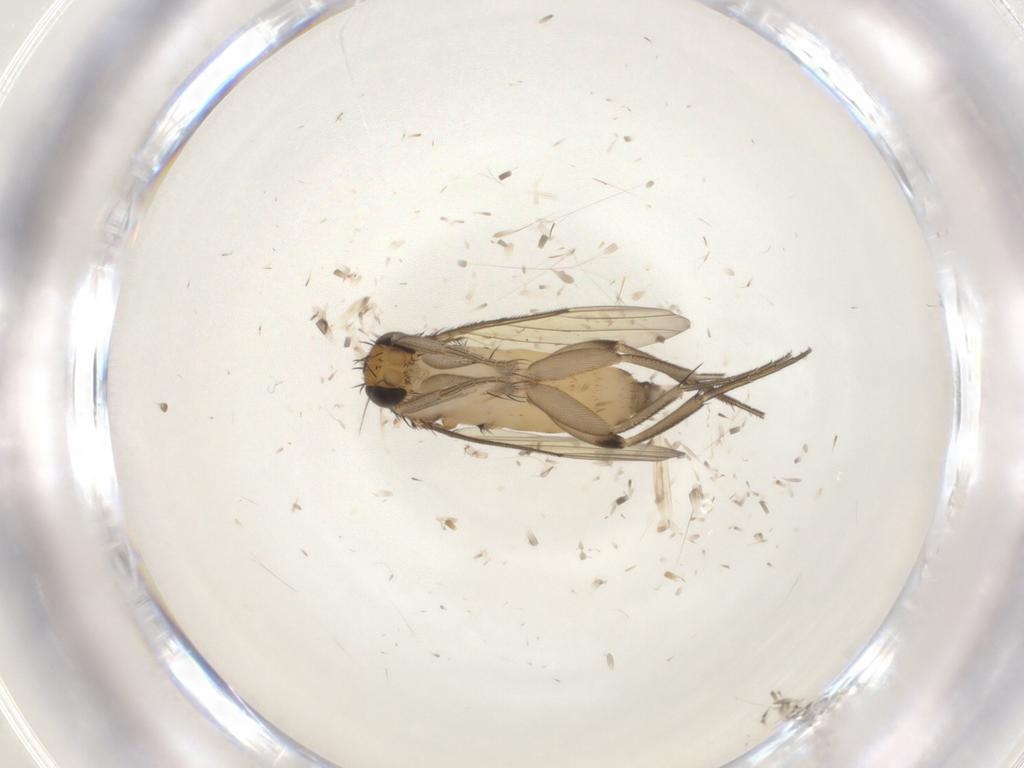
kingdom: Animalia
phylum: Arthropoda
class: Insecta
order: Diptera
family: Phoridae
